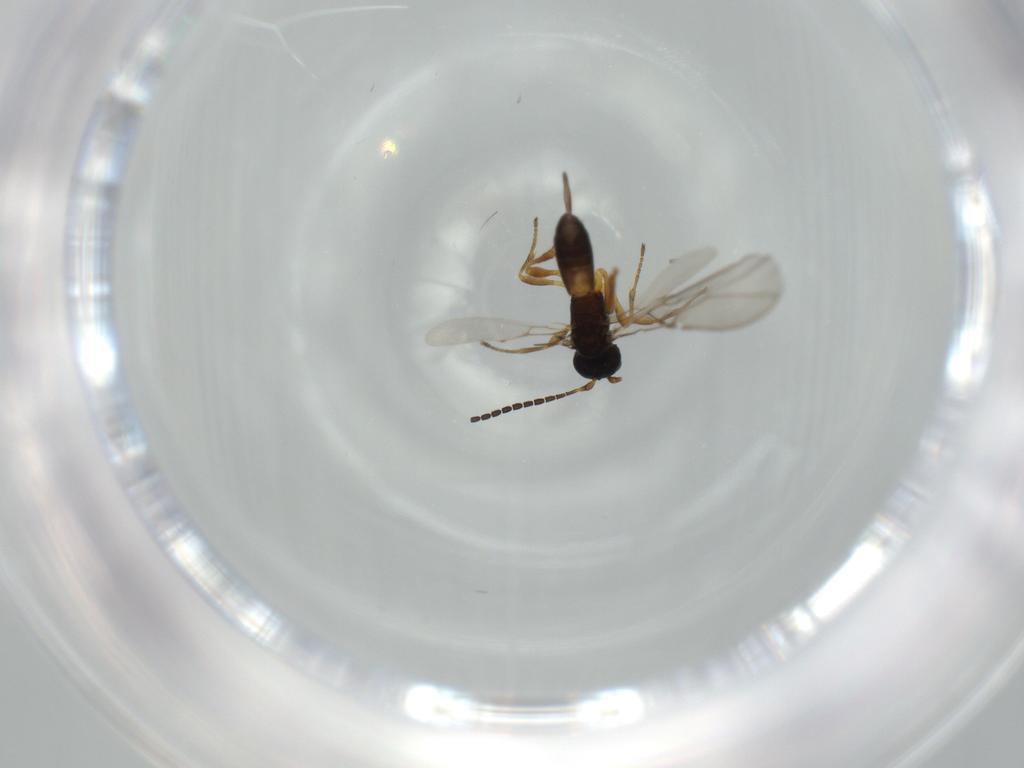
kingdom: Animalia
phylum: Arthropoda
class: Insecta
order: Hymenoptera
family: Braconidae
